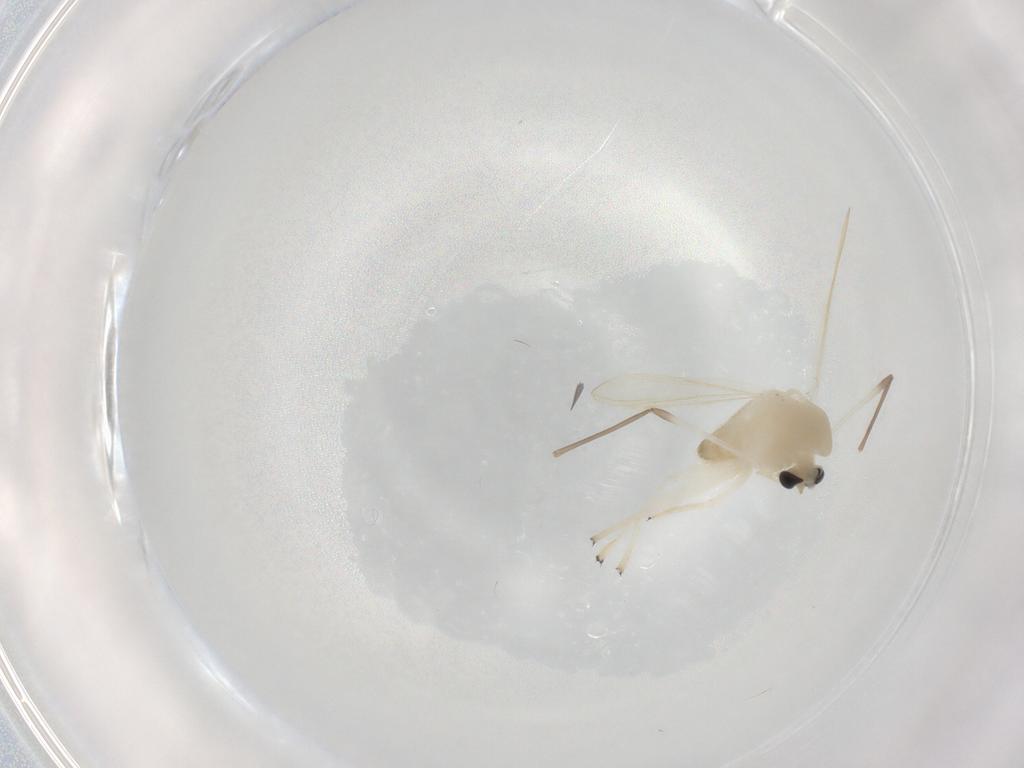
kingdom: Animalia
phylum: Arthropoda
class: Insecta
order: Diptera
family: Chironomidae
